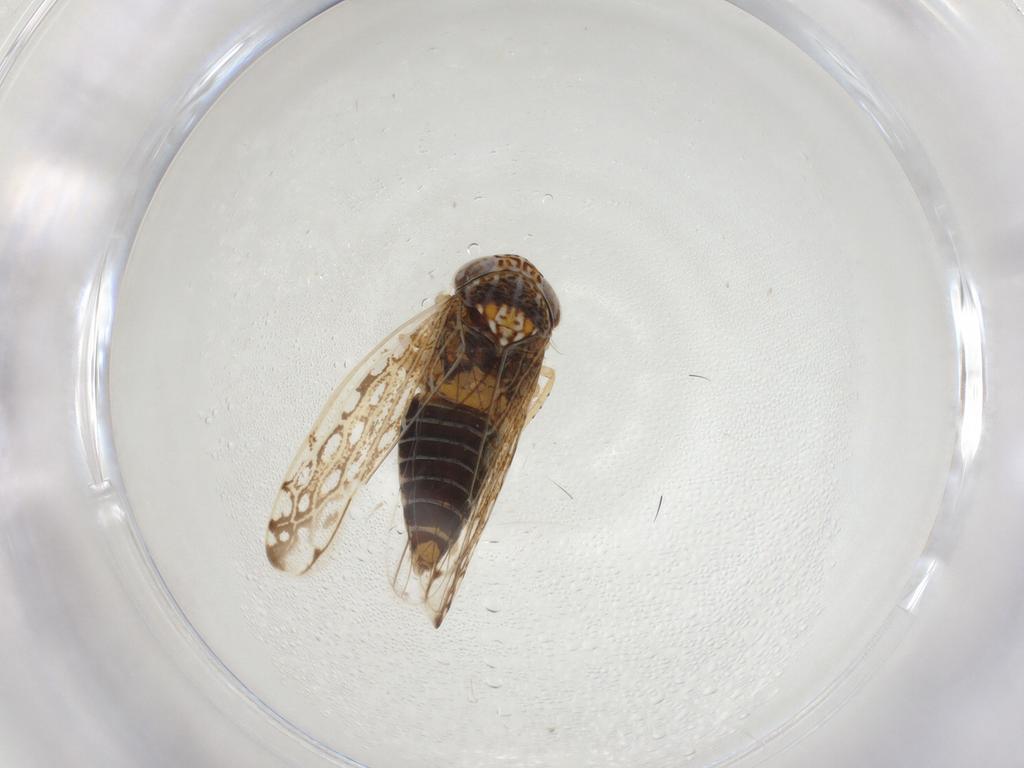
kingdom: Animalia
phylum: Arthropoda
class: Insecta
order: Hemiptera
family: Cicadellidae
